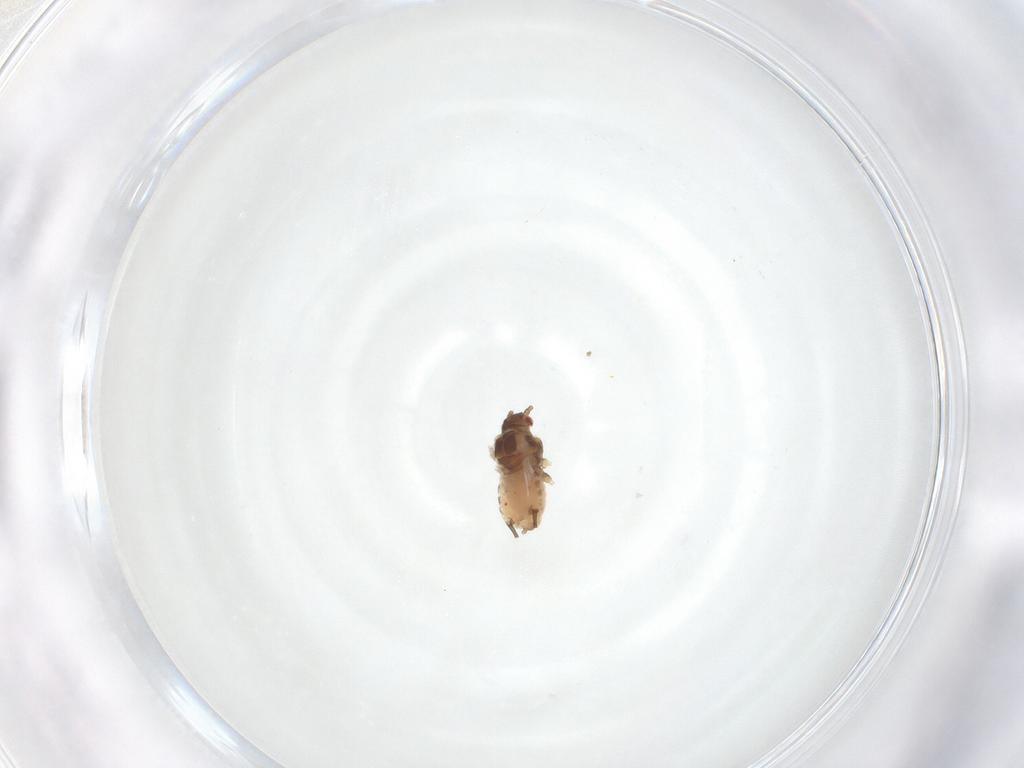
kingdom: Animalia
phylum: Arthropoda
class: Insecta
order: Hemiptera
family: Aphididae
